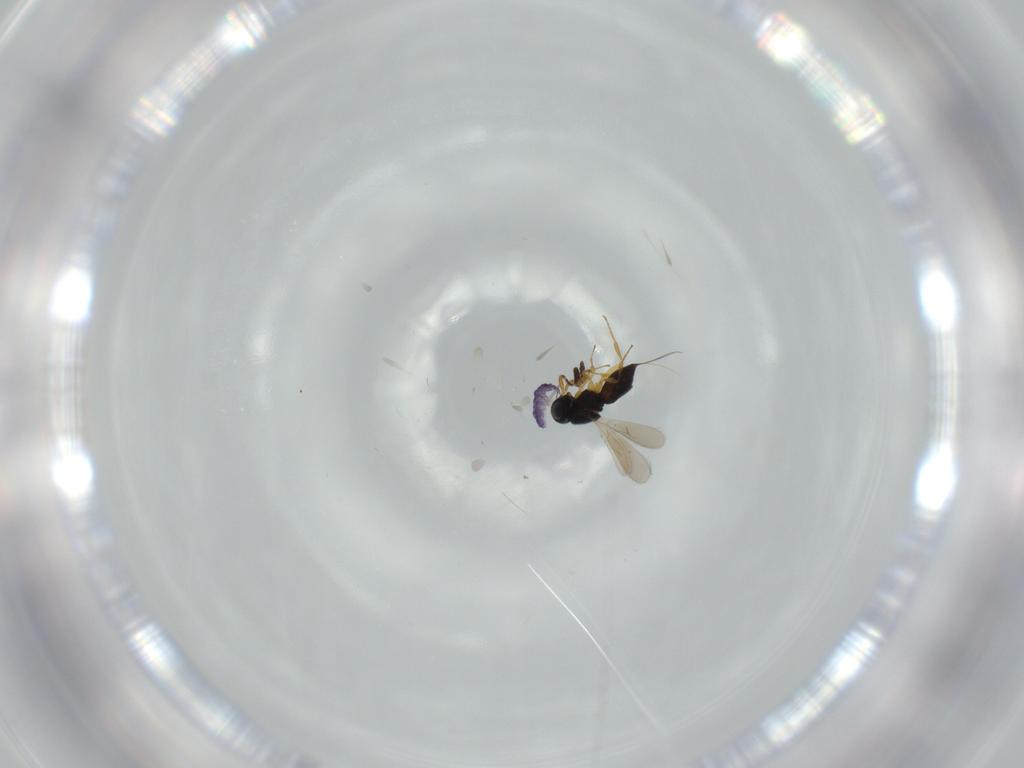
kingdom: Animalia
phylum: Arthropoda
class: Insecta
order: Hymenoptera
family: Scelionidae
